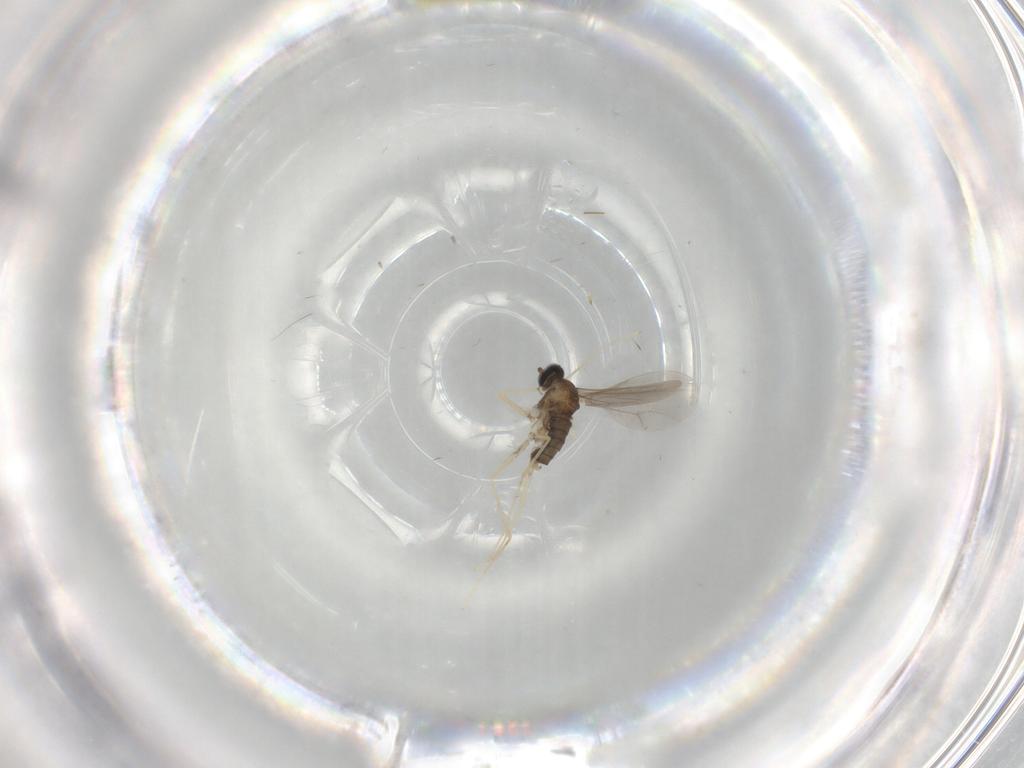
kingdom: Animalia
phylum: Arthropoda
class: Insecta
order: Diptera
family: Cecidomyiidae
